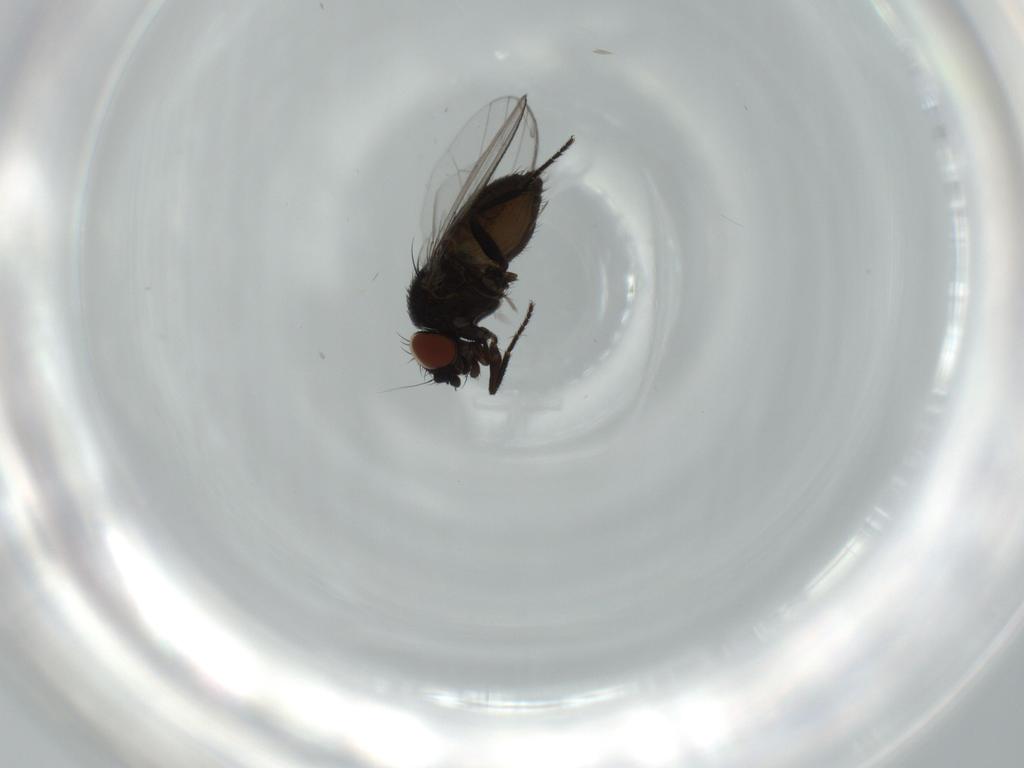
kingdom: Animalia
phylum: Arthropoda
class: Insecta
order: Diptera
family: Milichiidae
